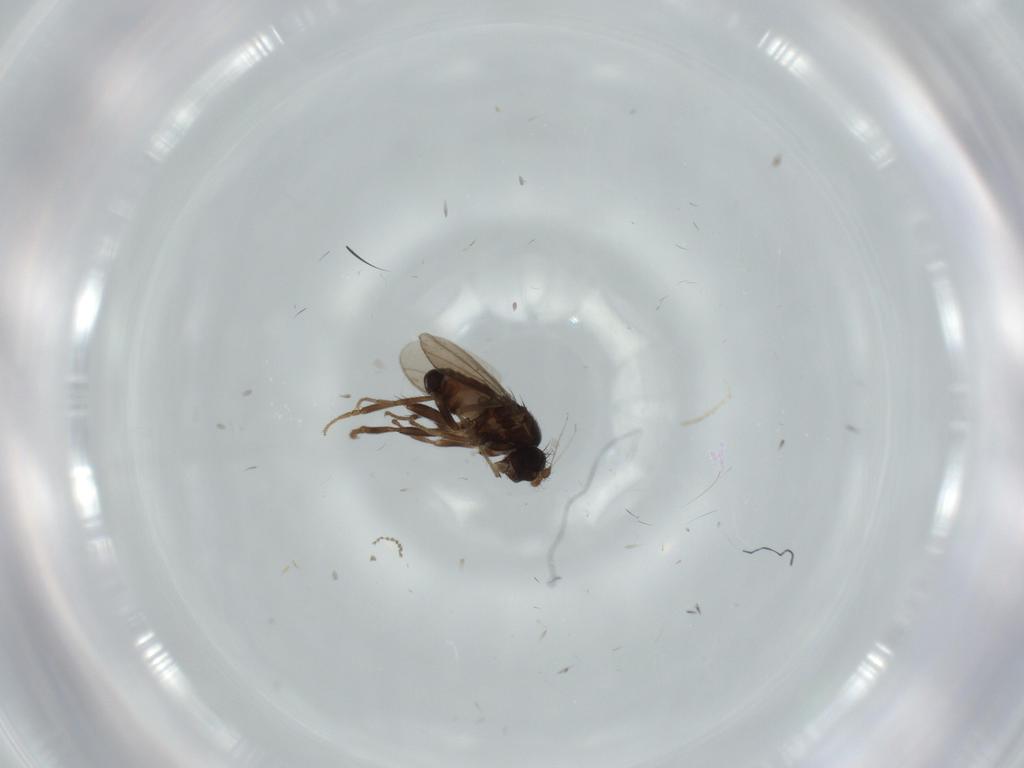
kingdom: Animalia
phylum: Arthropoda
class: Insecta
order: Diptera
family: Sphaeroceridae
